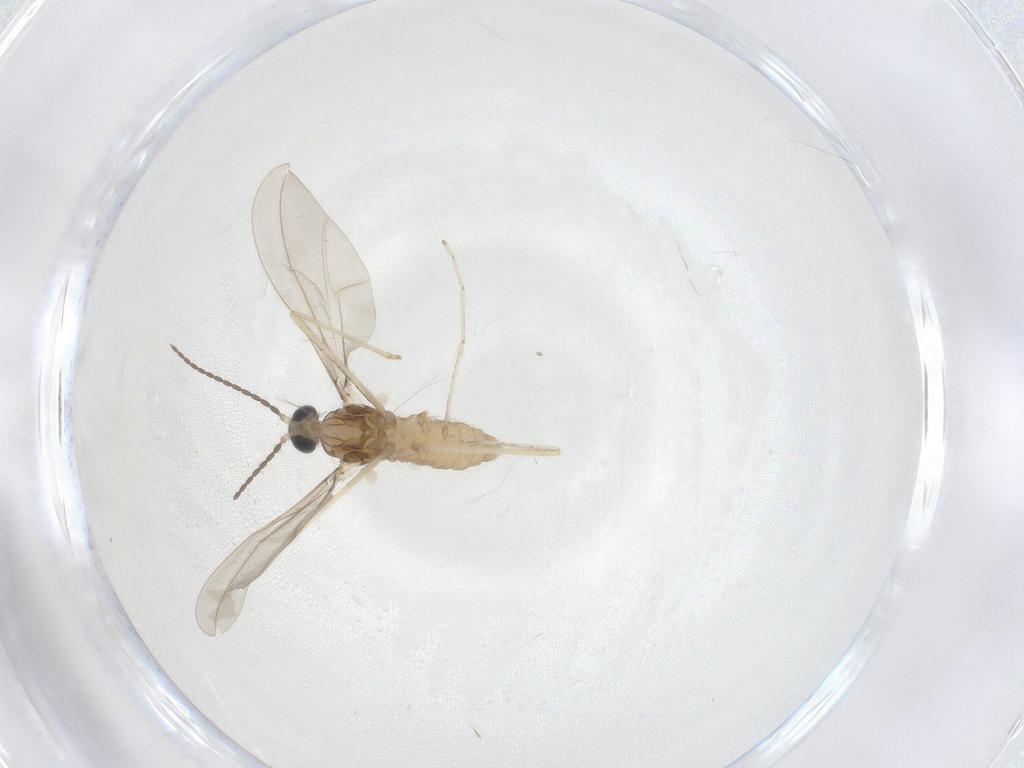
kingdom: Animalia
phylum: Arthropoda
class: Insecta
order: Diptera
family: Cecidomyiidae
